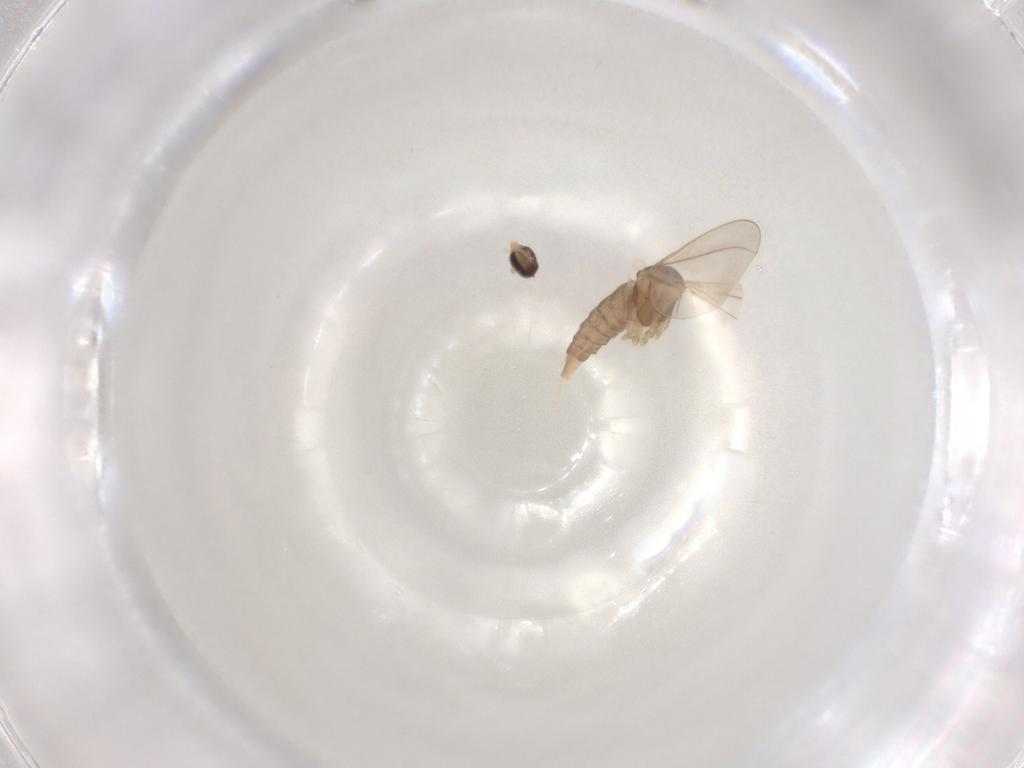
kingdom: Animalia
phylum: Arthropoda
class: Insecta
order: Diptera
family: Cecidomyiidae
